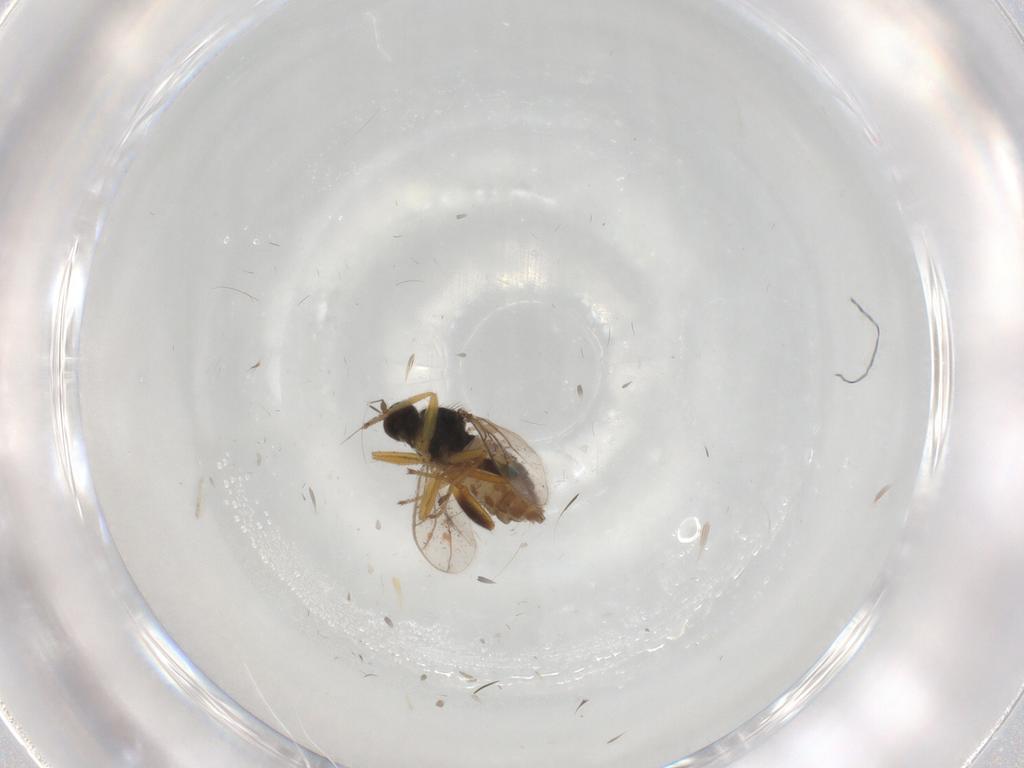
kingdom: Animalia
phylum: Arthropoda
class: Insecta
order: Diptera
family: Hybotidae
